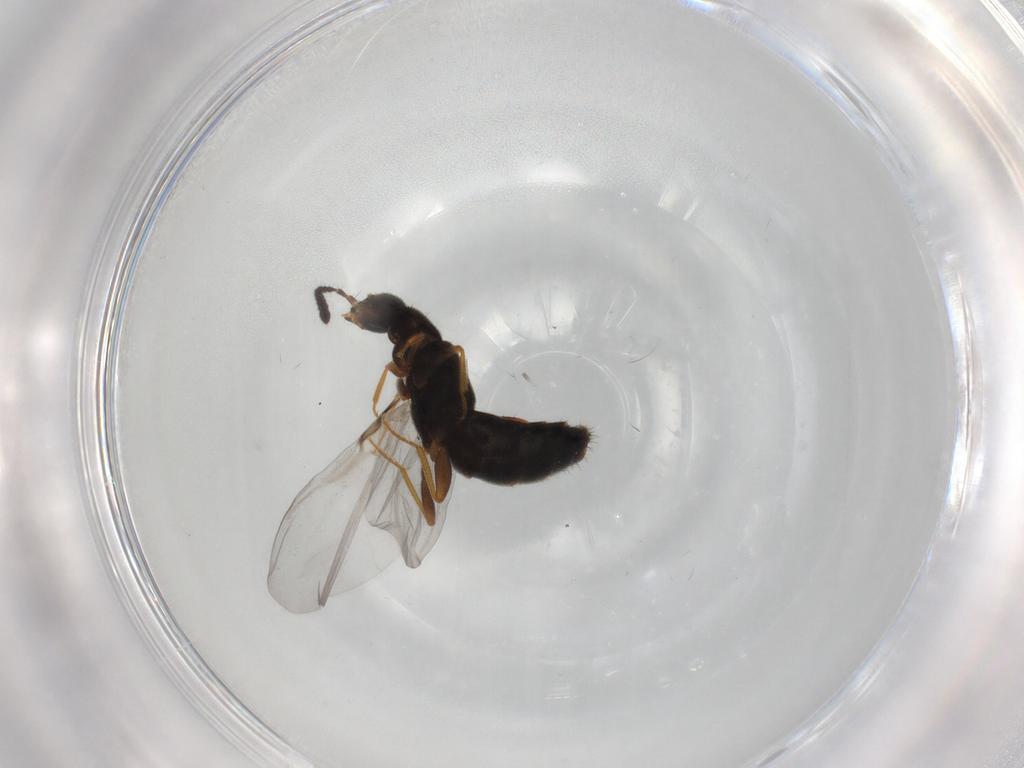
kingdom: Animalia
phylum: Arthropoda
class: Insecta
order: Coleoptera
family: Staphylinidae
